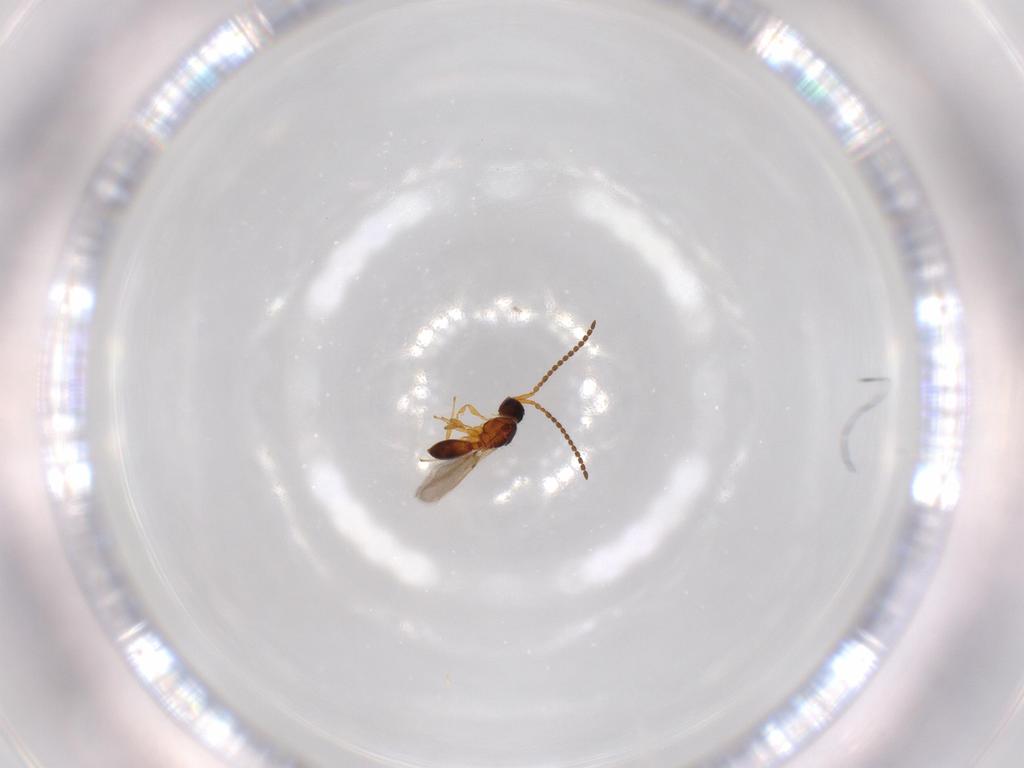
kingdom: Animalia
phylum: Arthropoda
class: Insecta
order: Hymenoptera
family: Diapriidae
